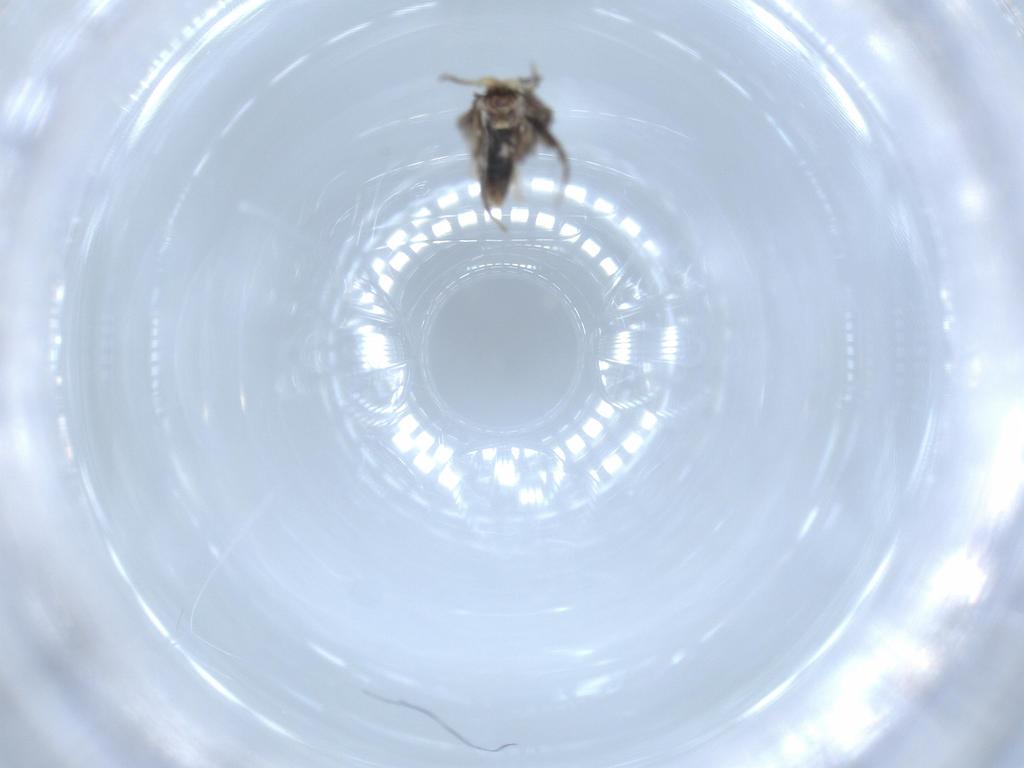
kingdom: Animalia
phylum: Arthropoda
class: Insecta
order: Lepidoptera
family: Nepticulidae
